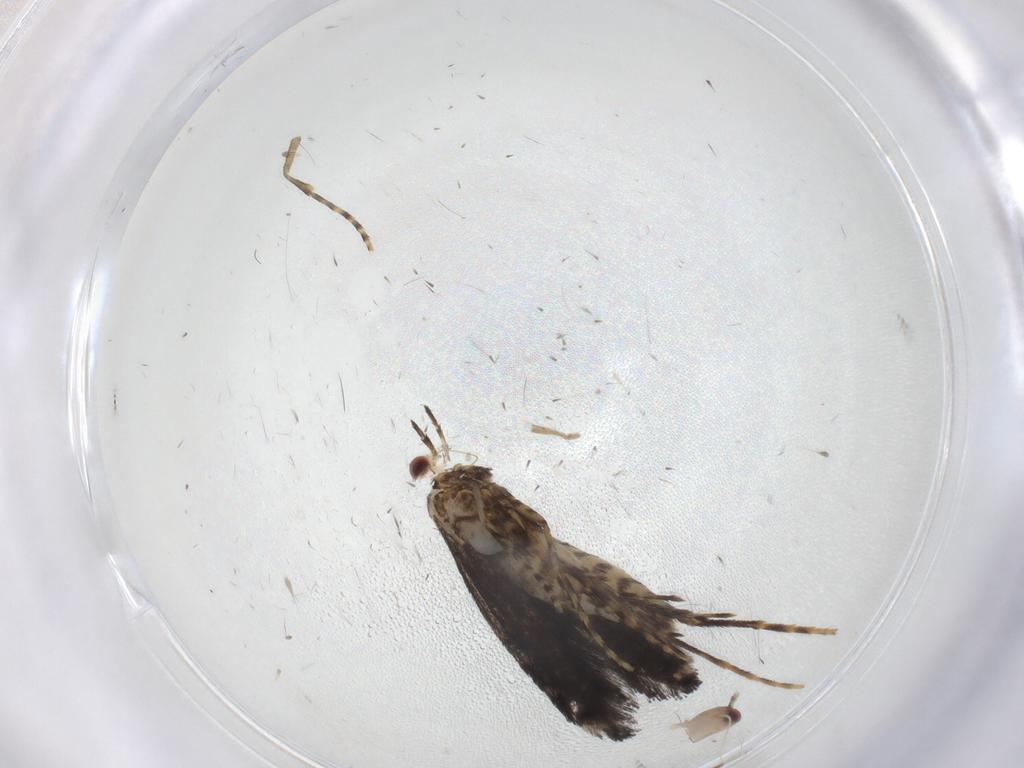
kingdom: Animalia
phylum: Arthropoda
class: Insecta
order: Lepidoptera
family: Gracillariidae
